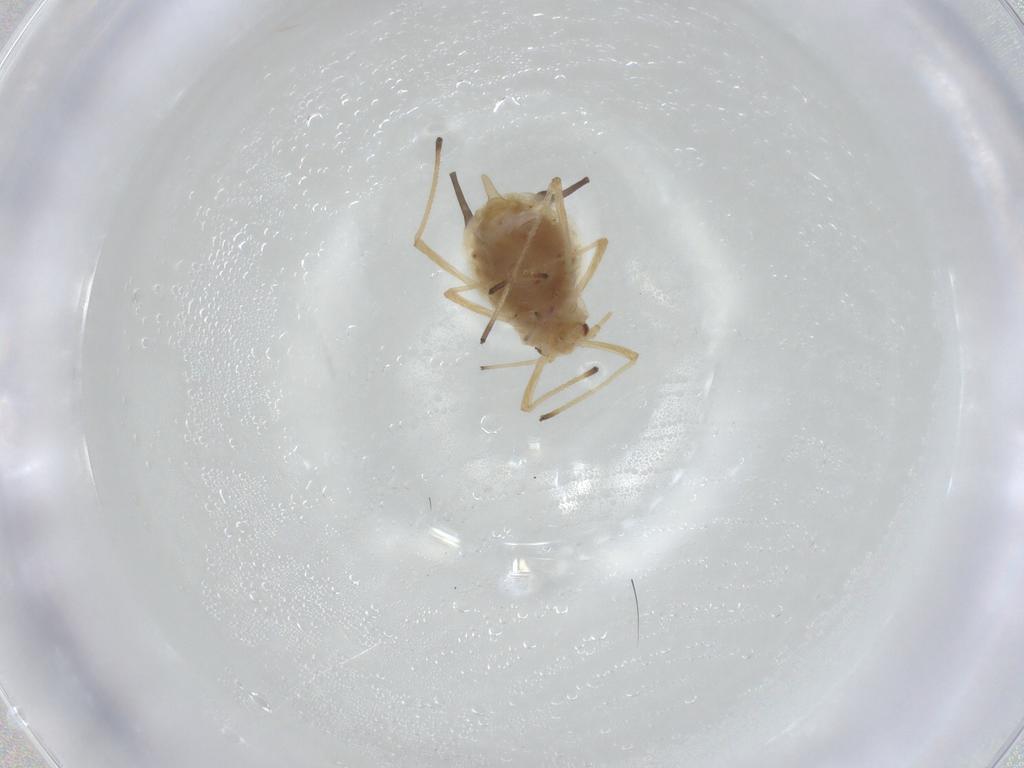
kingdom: Animalia
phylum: Arthropoda
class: Insecta
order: Hemiptera
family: Aphididae
